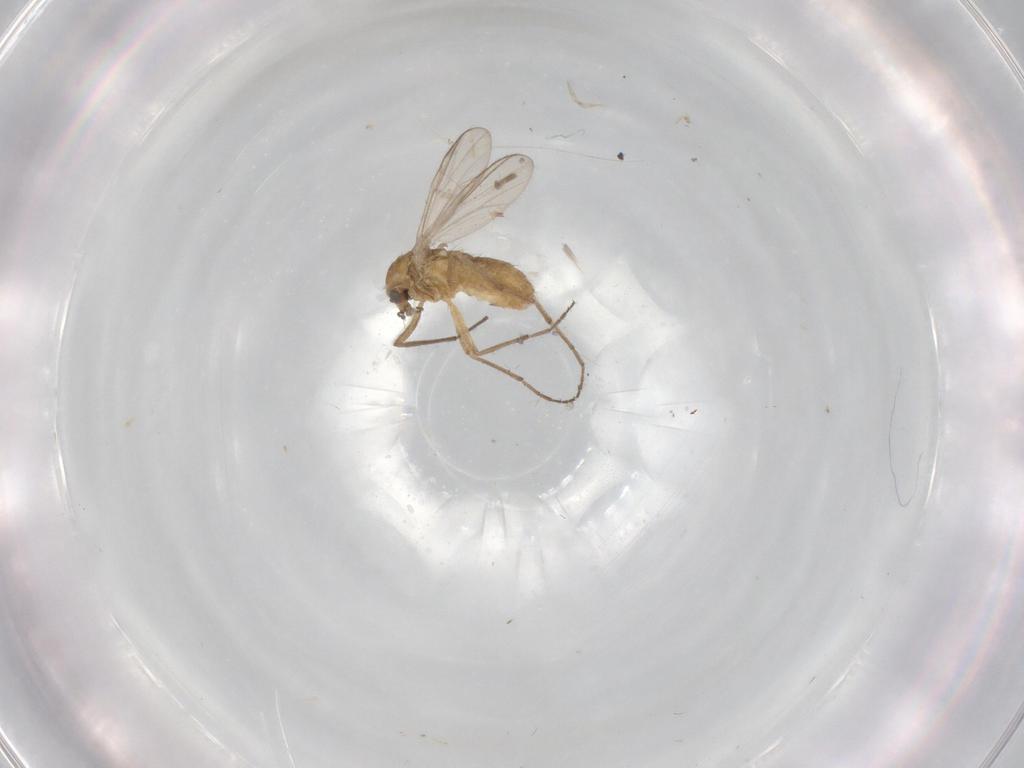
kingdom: Animalia
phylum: Arthropoda
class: Insecta
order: Diptera
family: Chironomidae
